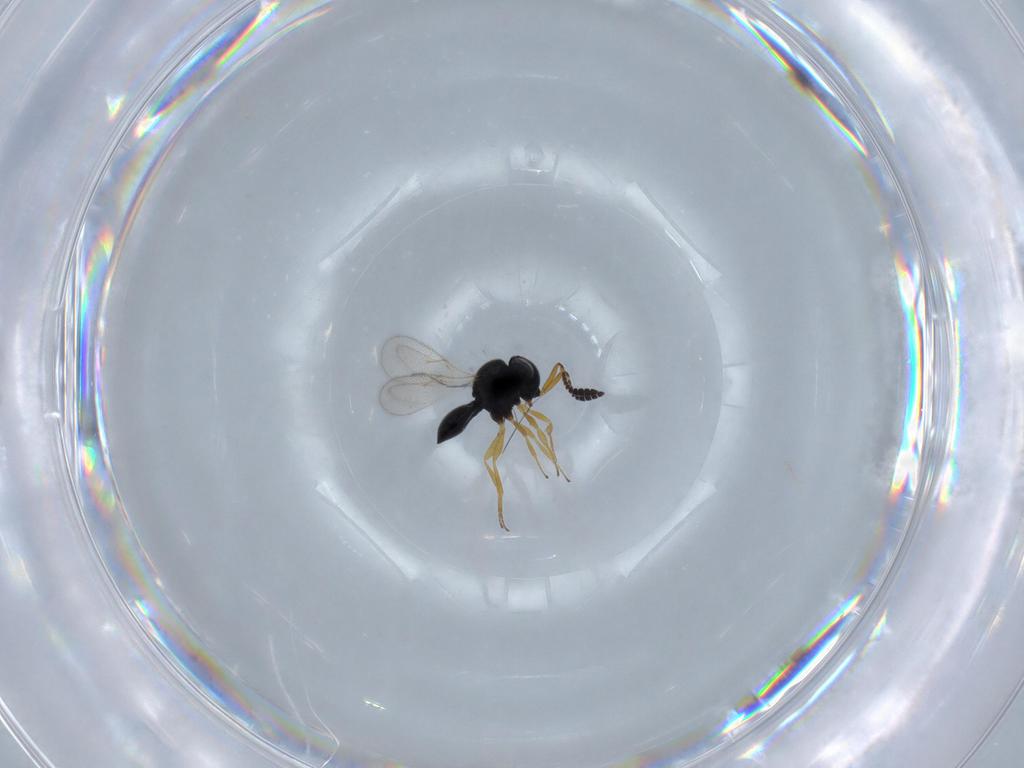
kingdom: Animalia
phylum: Arthropoda
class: Insecta
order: Hymenoptera
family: Scelionidae
